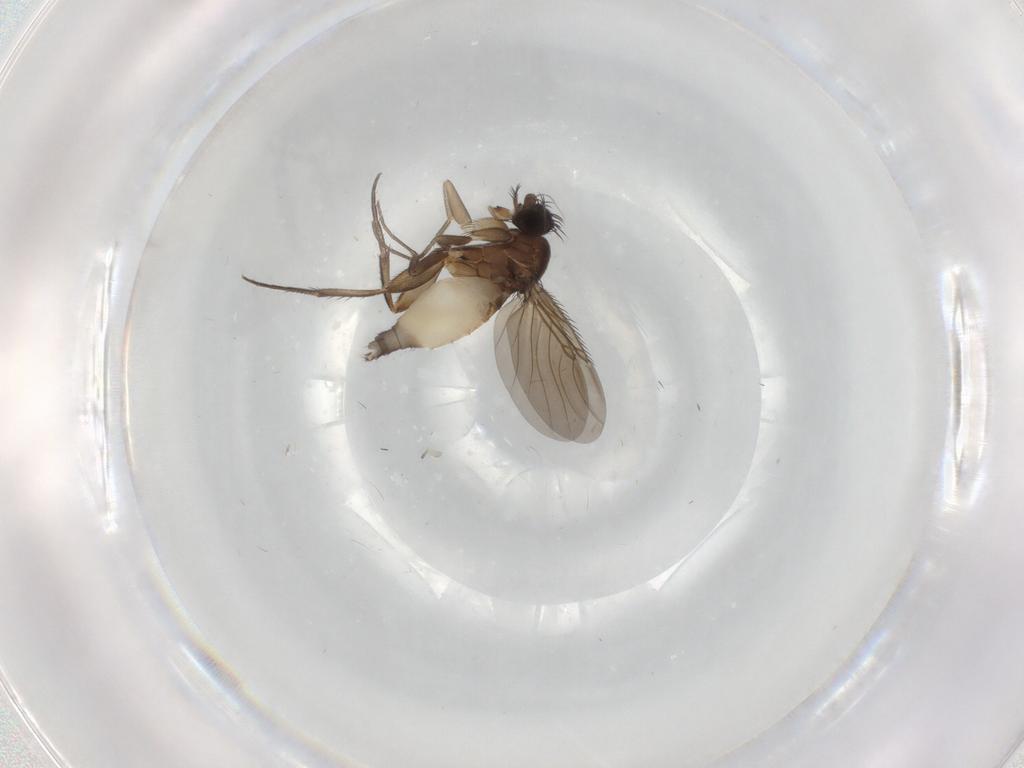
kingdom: Animalia
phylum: Arthropoda
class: Insecta
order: Diptera
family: Phoridae
